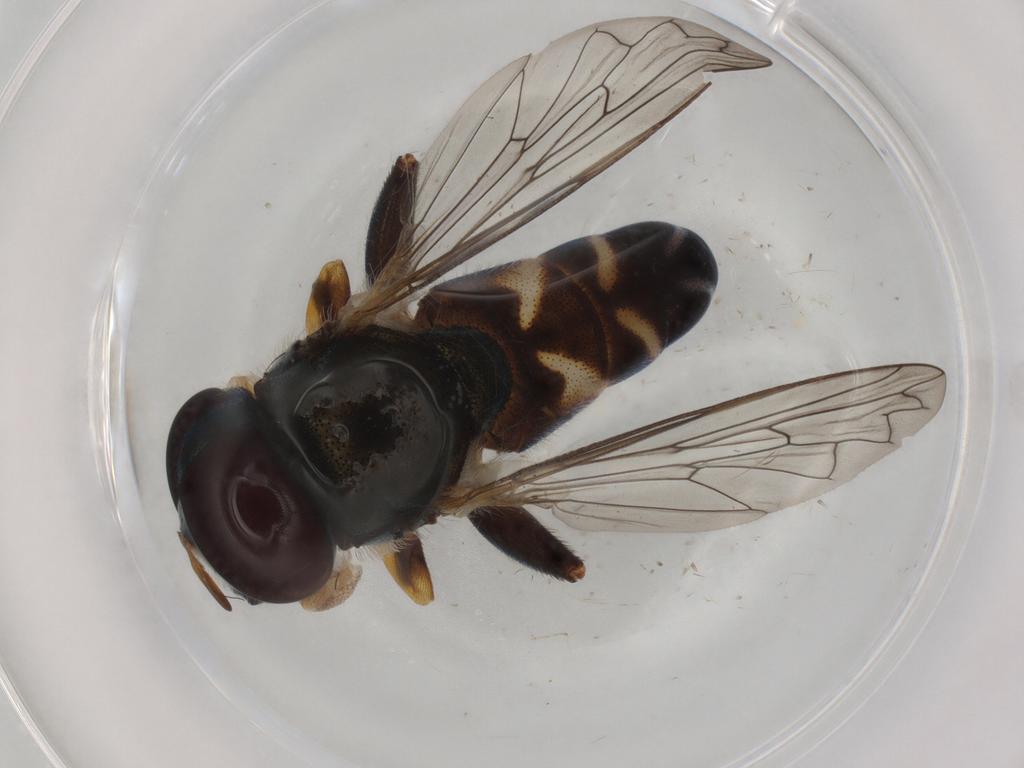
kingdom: Animalia
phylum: Arthropoda
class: Insecta
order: Diptera
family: Syrphidae
